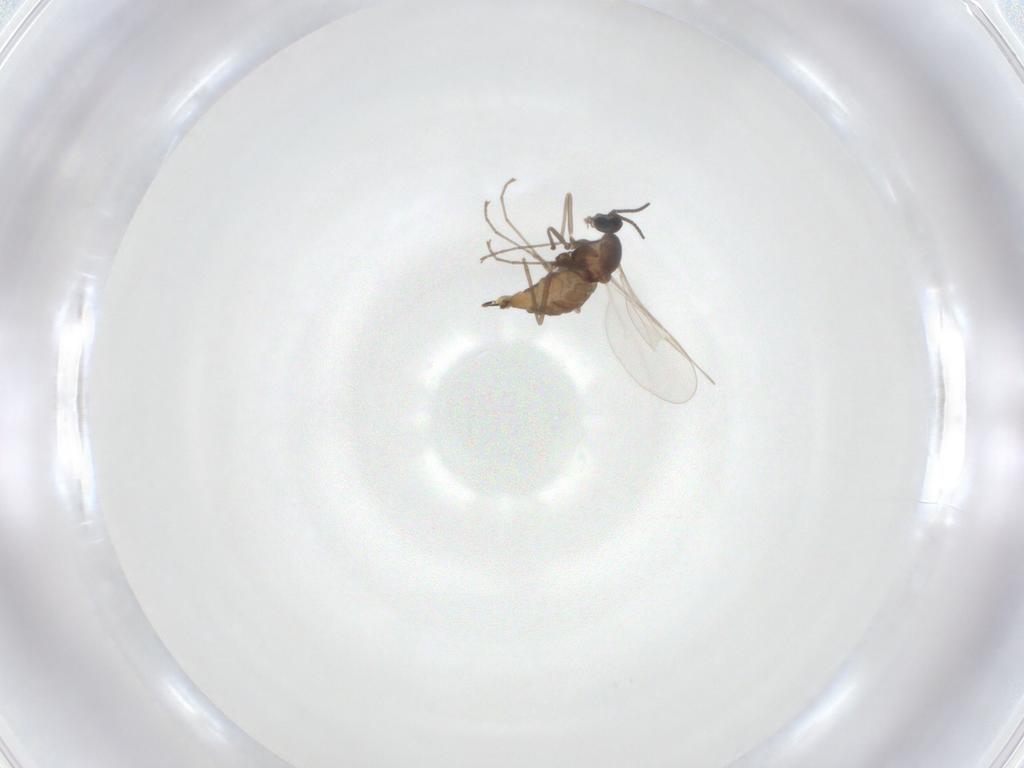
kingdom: Animalia
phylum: Arthropoda
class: Insecta
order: Diptera
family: Cecidomyiidae
